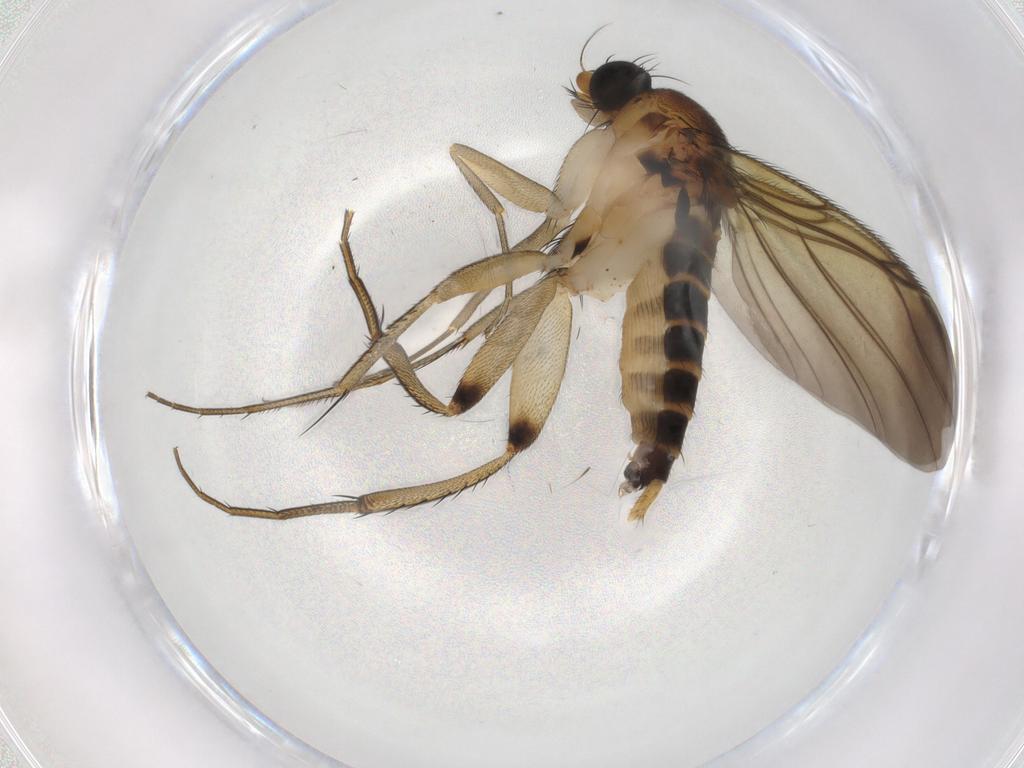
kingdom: Animalia
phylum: Arthropoda
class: Insecta
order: Diptera
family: Phoridae
